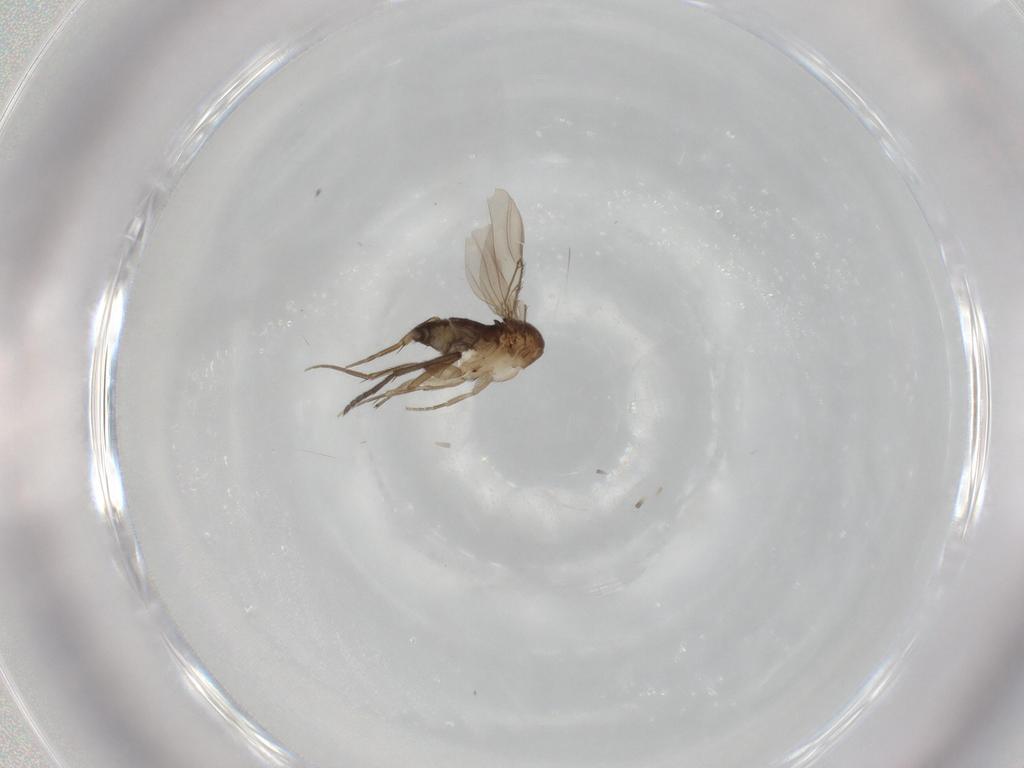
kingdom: Animalia
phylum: Arthropoda
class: Insecta
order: Diptera
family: Phoridae
